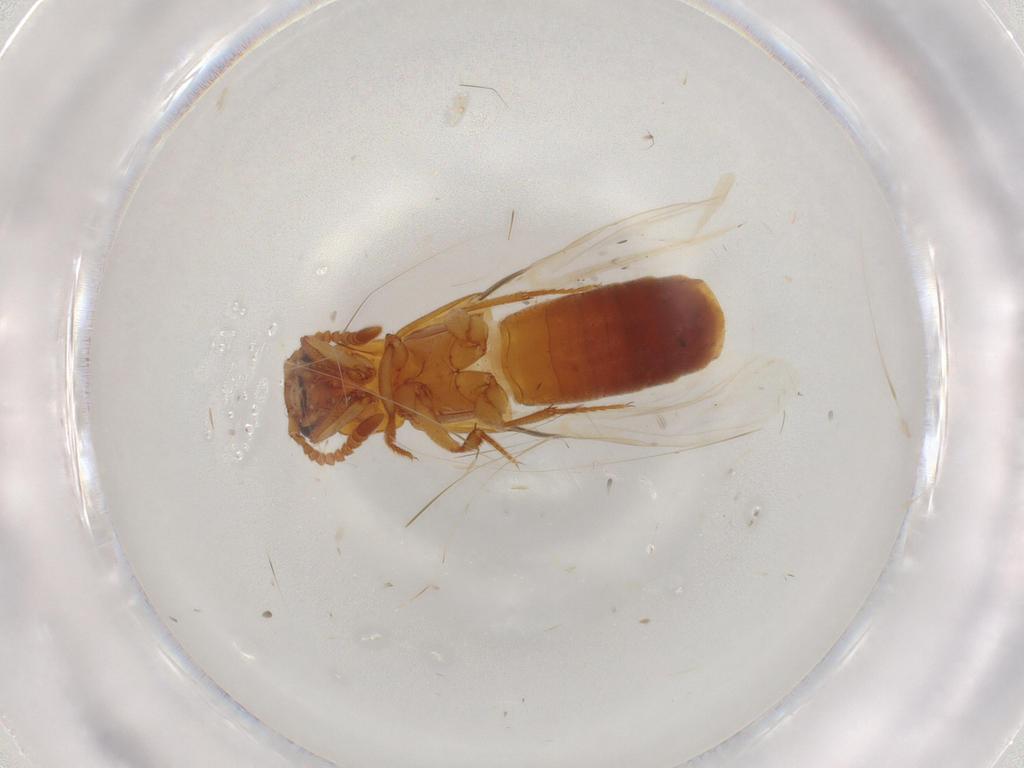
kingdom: Animalia
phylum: Arthropoda
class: Insecta
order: Coleoptera
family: Staphylinidae
